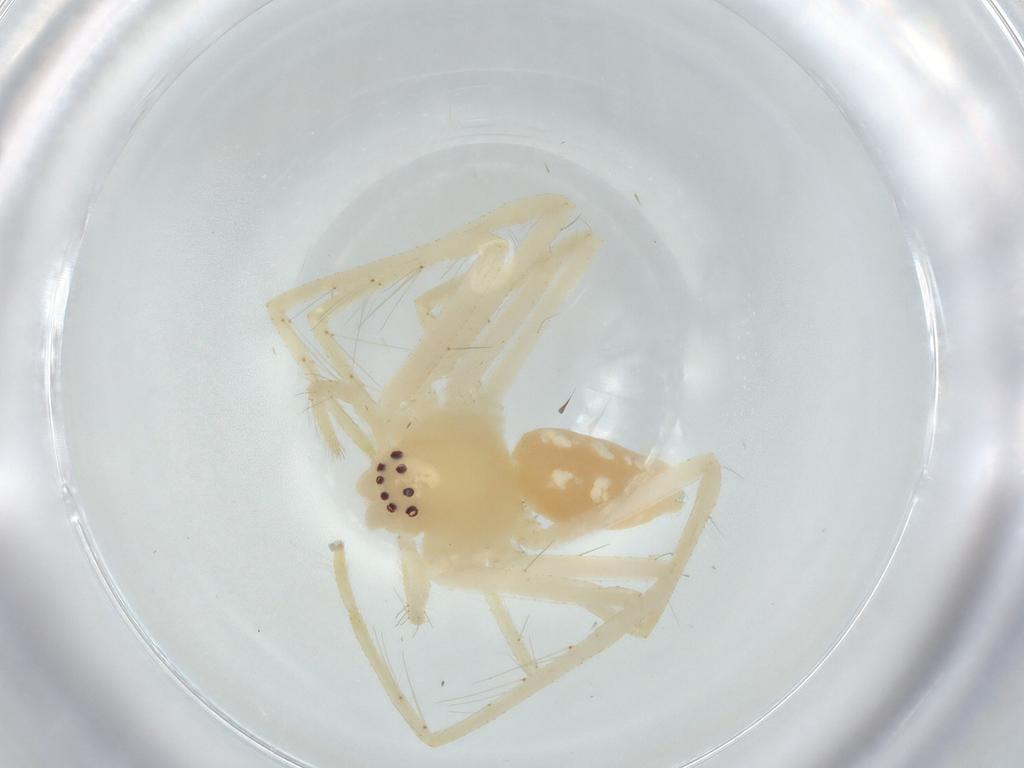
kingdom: Animalia
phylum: Arthropoda
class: Arachnida
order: Araneae
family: Sparassidae
